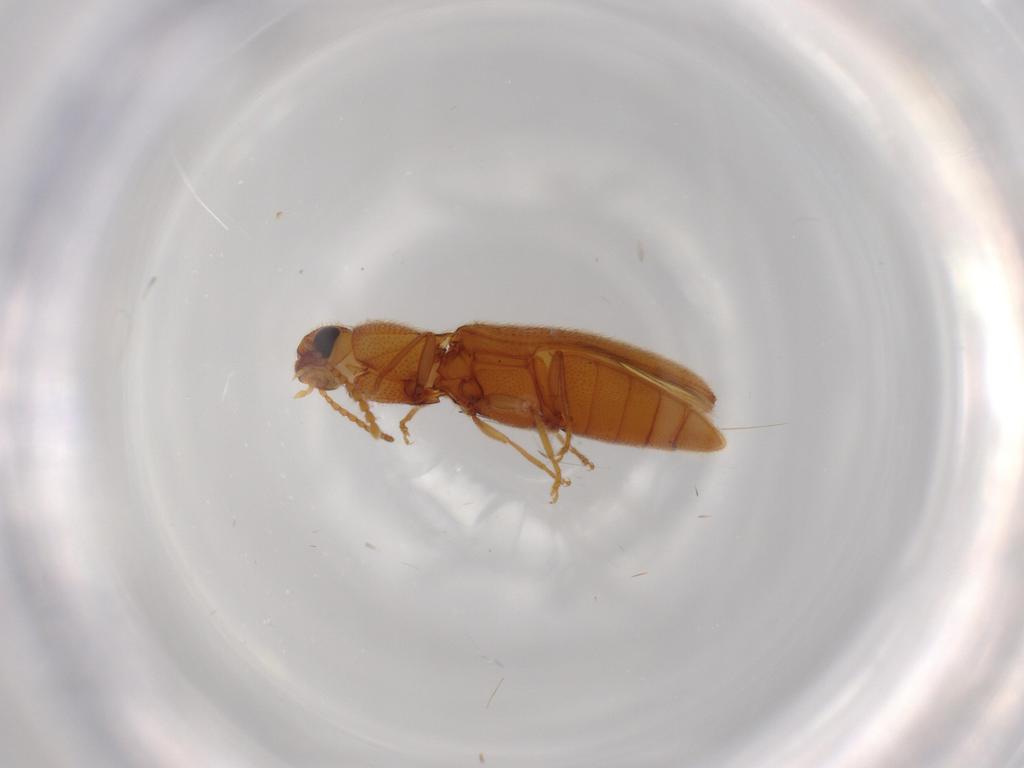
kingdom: Animalia
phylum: Arthropoda
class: Insecta
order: Coleoptera
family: Elateridae
